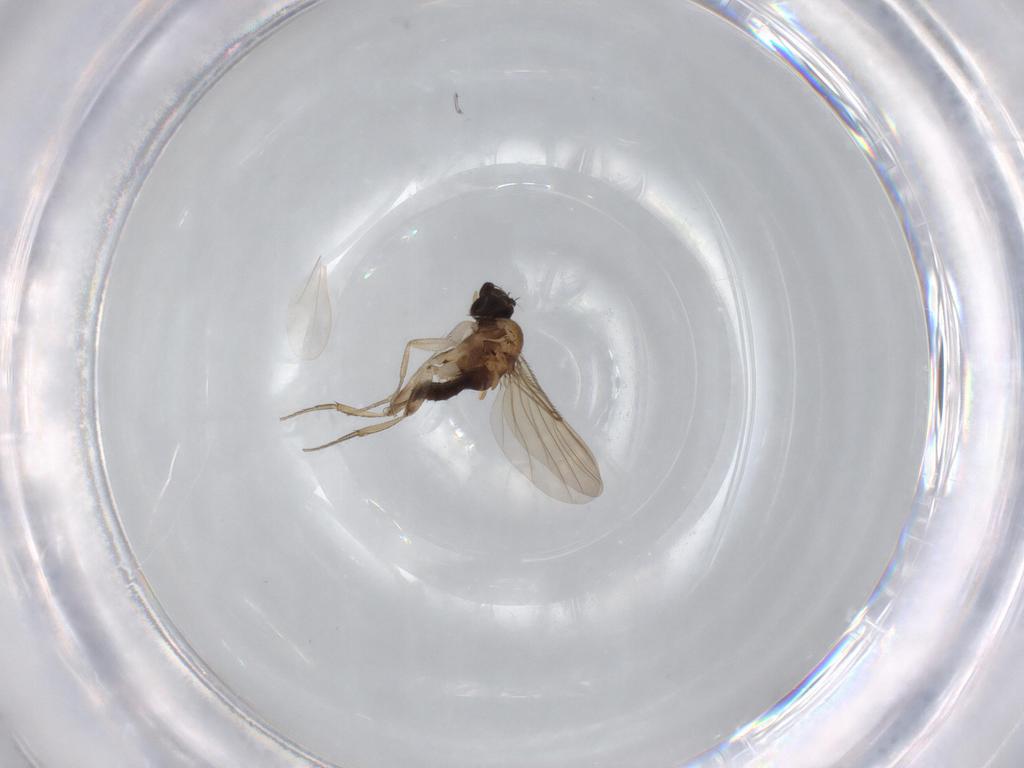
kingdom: Animalia
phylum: Arthropoda
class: Insecta
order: Diptera
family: Phoridae
